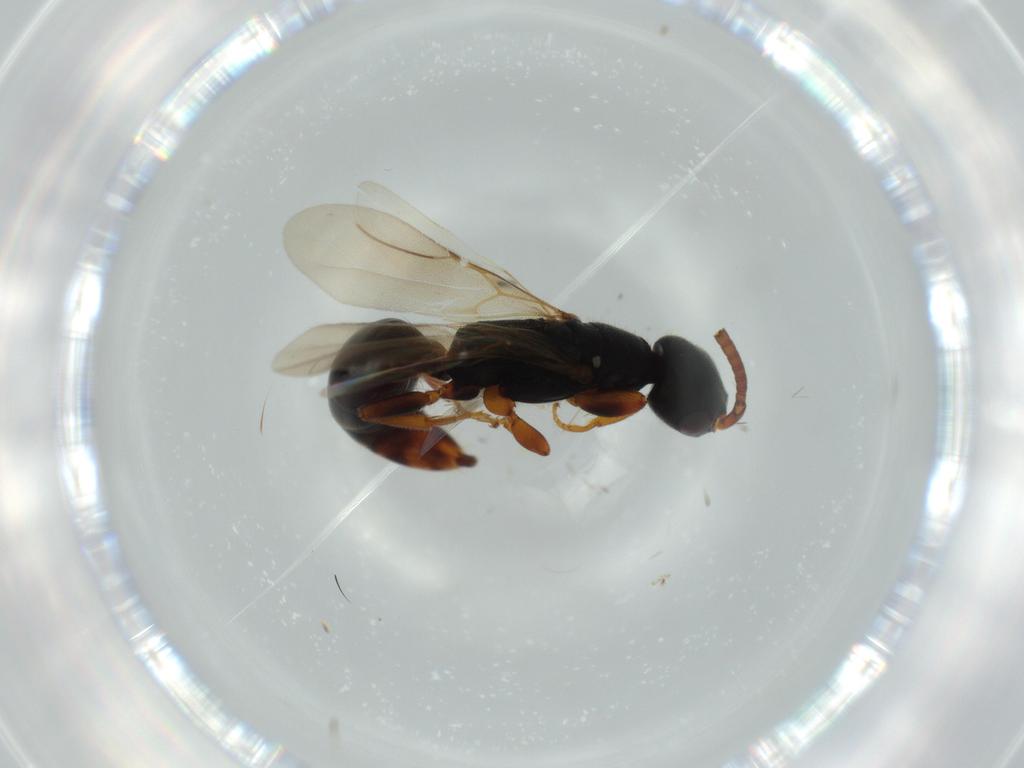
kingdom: Animalia
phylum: Arthropoda
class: Insecta
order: Hymenoptera
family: Bethylidae
